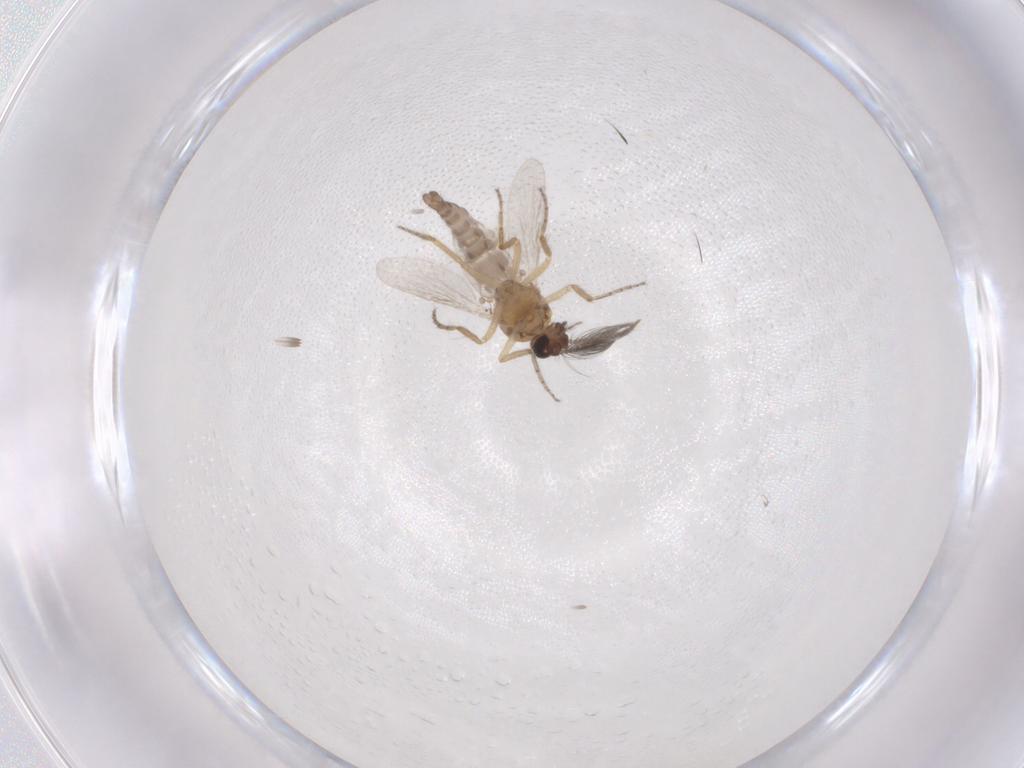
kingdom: Animalia
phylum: Arthropoda
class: Insecta
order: Diptera
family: Ceratopogonidae
